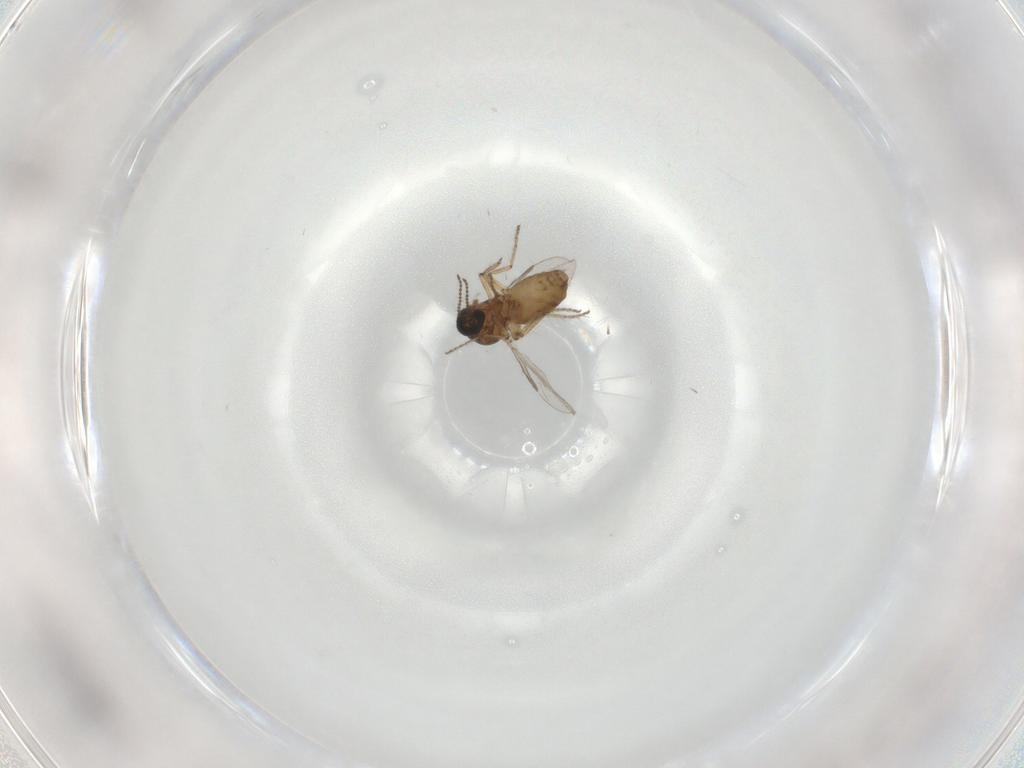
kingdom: Animalia
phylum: Arthropoda
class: Insecta
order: Diptera
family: Ceratopogonidae
